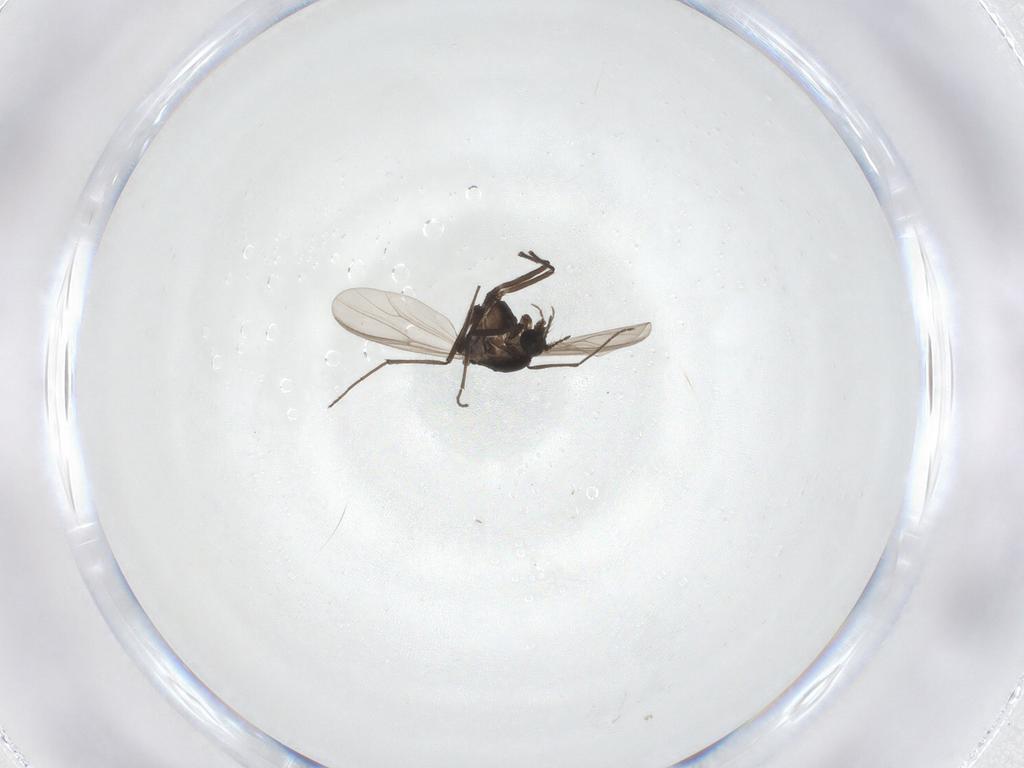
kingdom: Animalia
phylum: Arthropoda
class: Insecta
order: Diptera
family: Chironomidae
